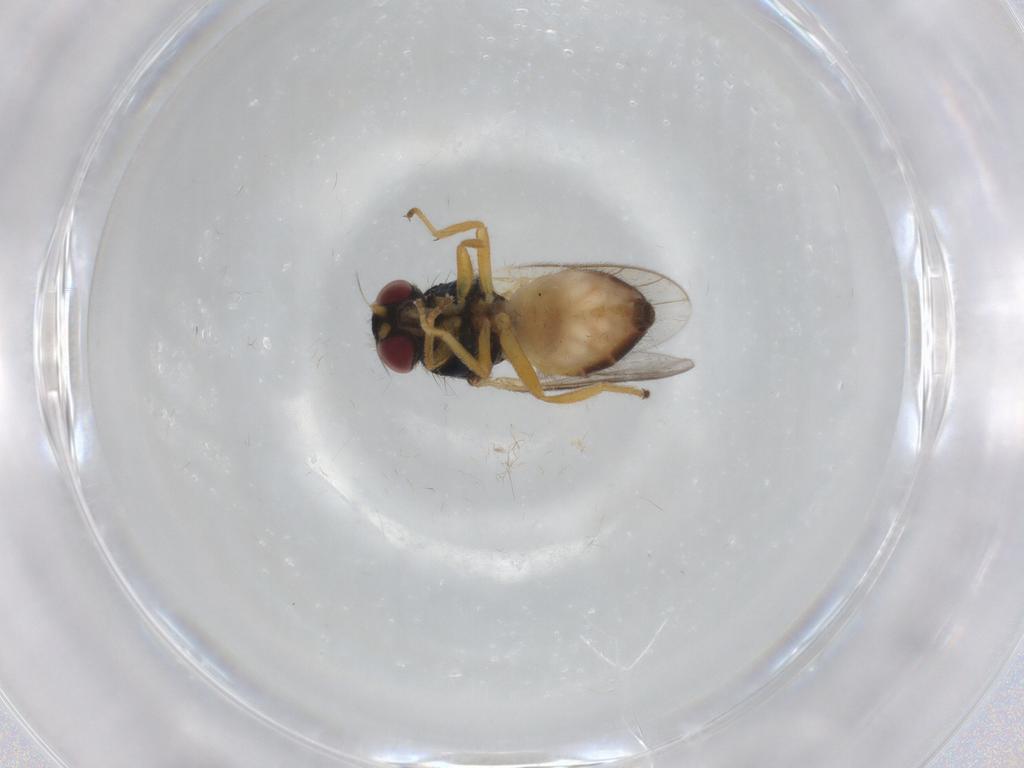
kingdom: Animalia
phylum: Arthropoda
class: Insecta
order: Diptera
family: Chloropidae
